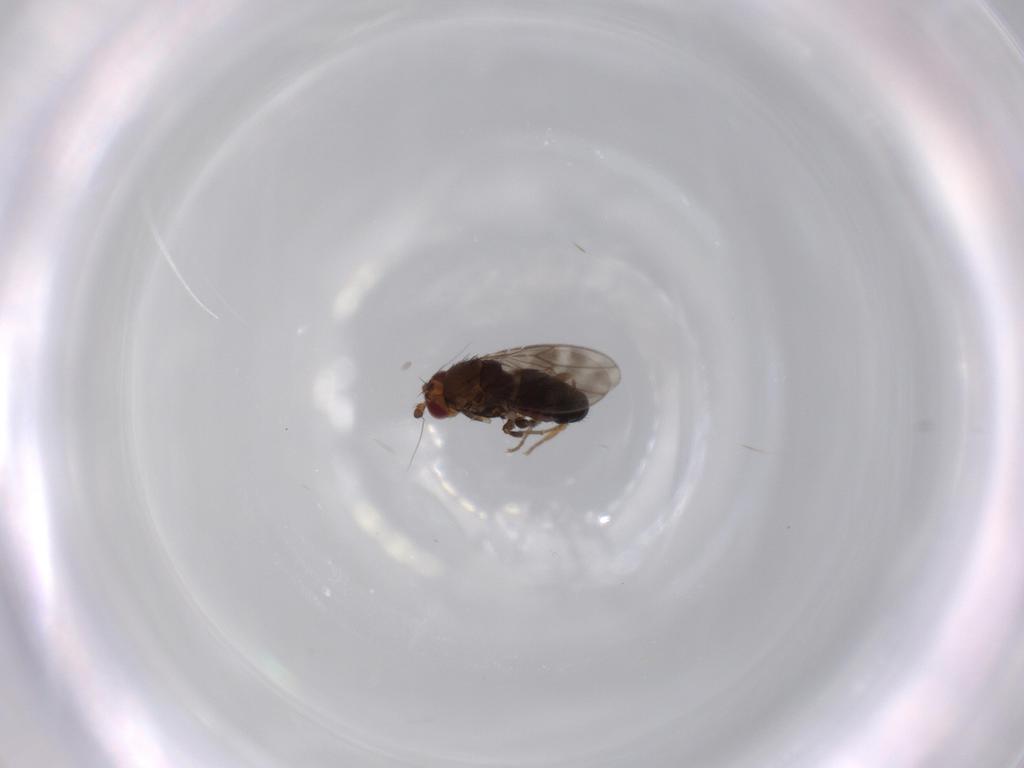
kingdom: Animalia
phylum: Arthropoda
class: Insecta
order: Diptera
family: Sphaeroceridae
